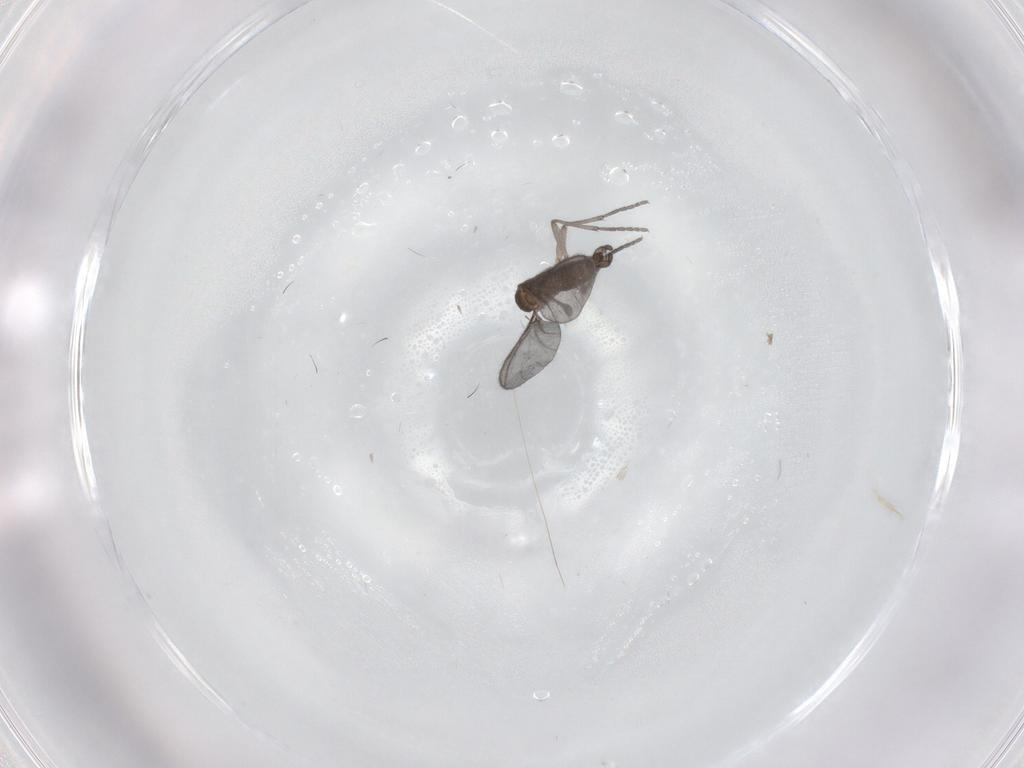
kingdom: Animalia
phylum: Arthropoda
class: Insecta
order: Diptera
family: Sciaridae
